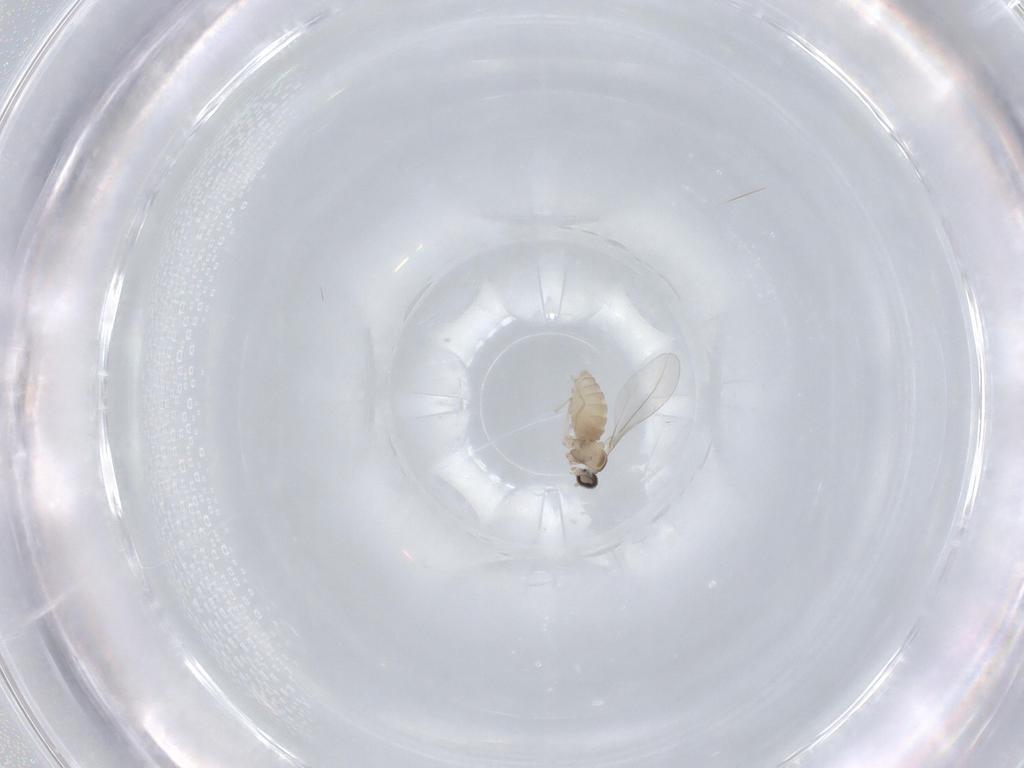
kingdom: Animalia
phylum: Arthropoda
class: Insecta
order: Diptera
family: Cecidomyiidae
